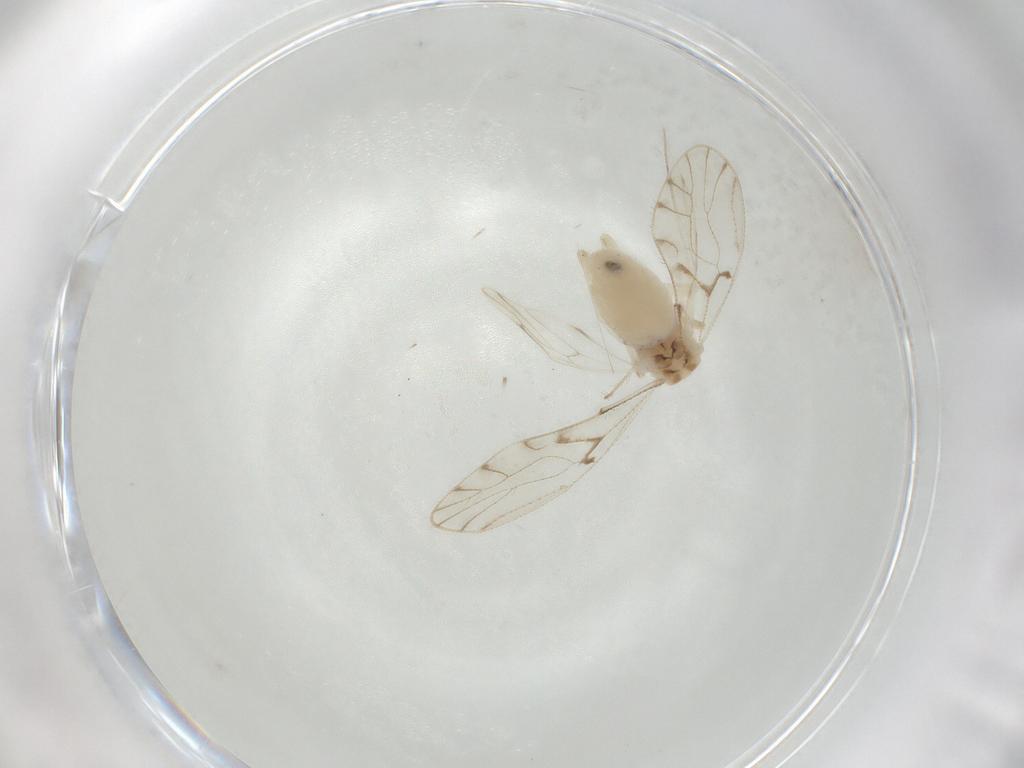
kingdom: Animalia
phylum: Arthropoda
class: Insecta
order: Psocodea
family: Trichopsocidae
